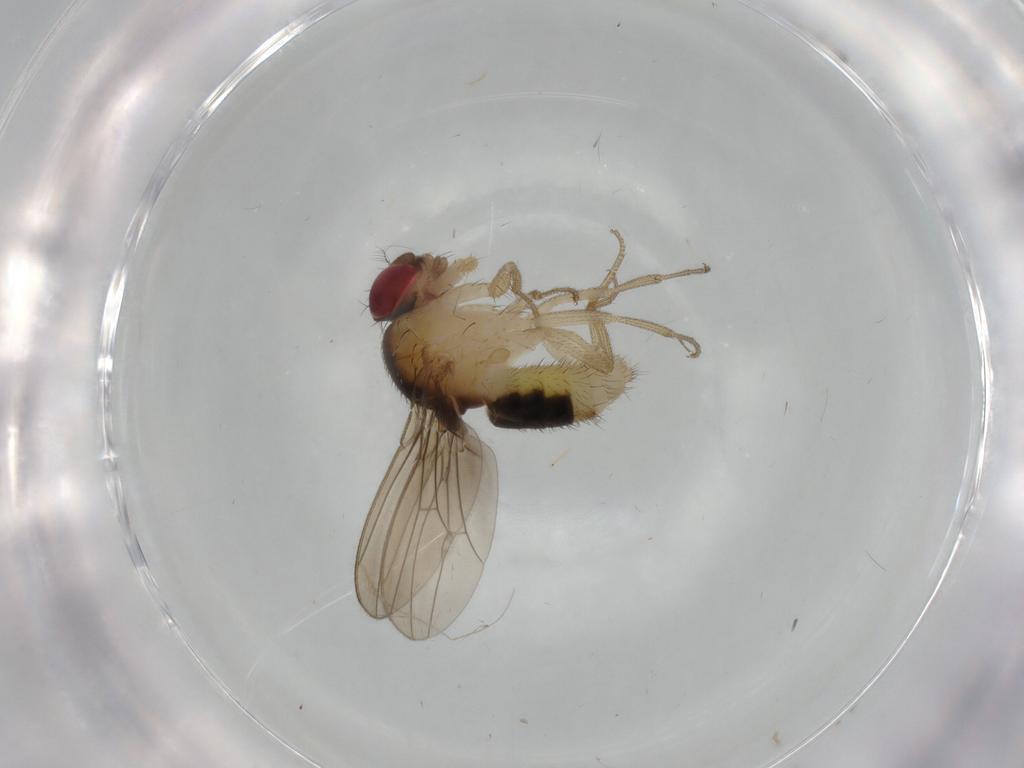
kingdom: Animalia
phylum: Arthropoda
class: Insecta
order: Diptera
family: Drosophilidae
